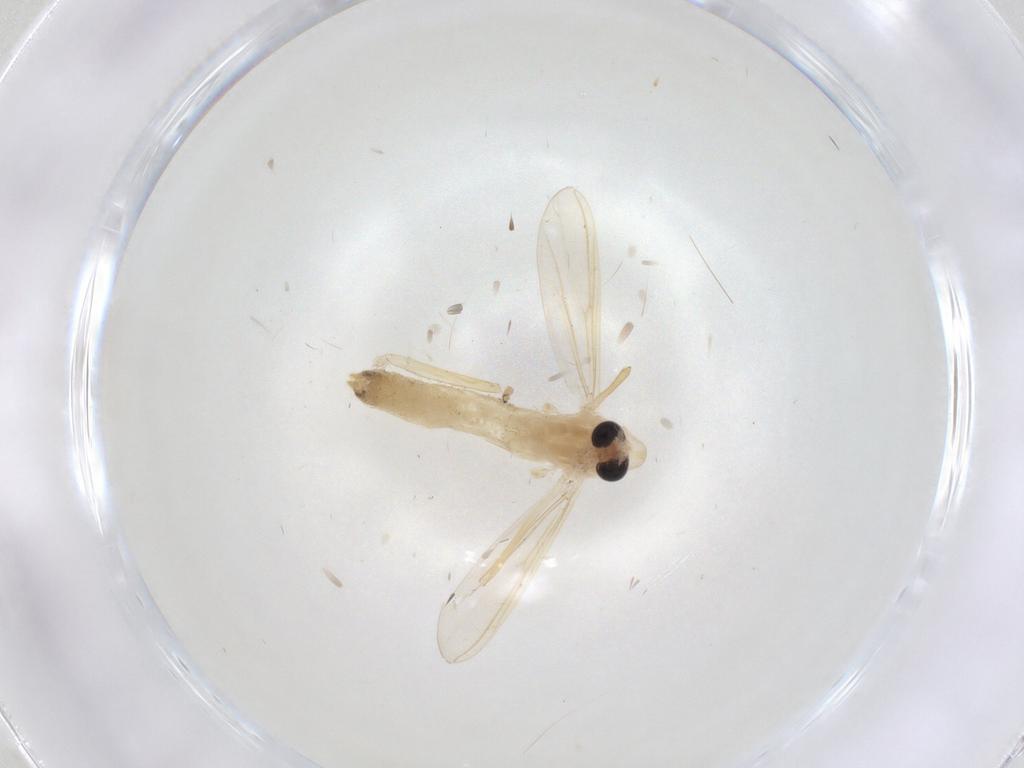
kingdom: Animalia
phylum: Arthropoda
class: Insecta
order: Diptera
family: Chironomidae
